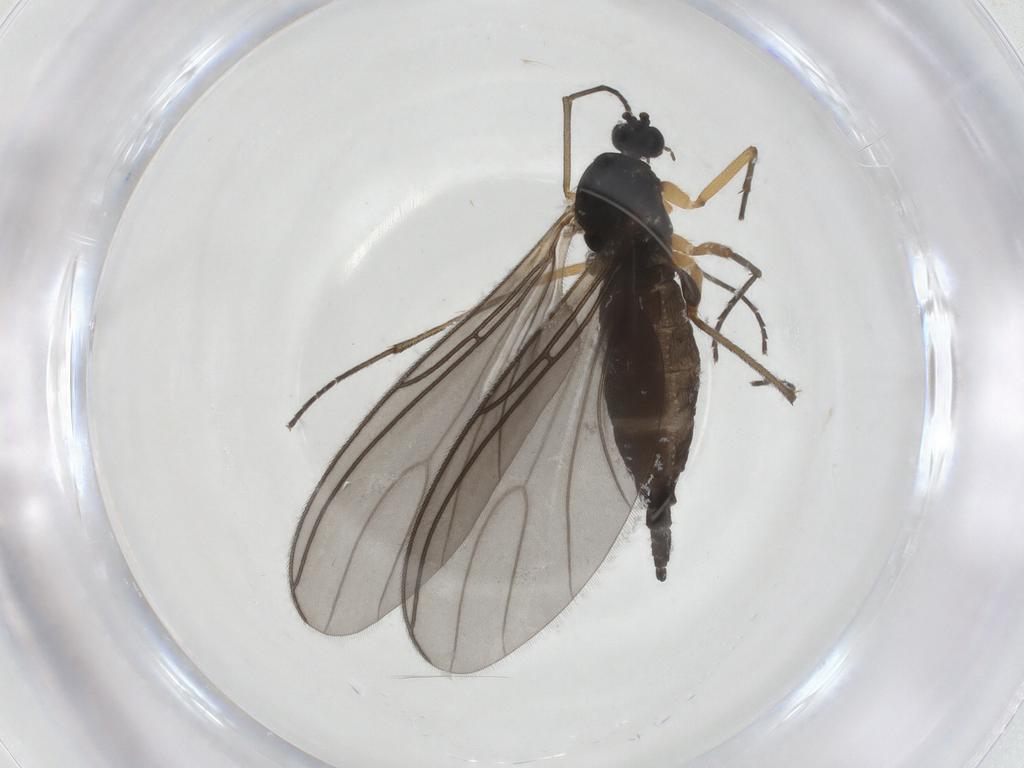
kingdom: Animalia
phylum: Arthropoda
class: Insecta
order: Diptera
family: Sciaridae
